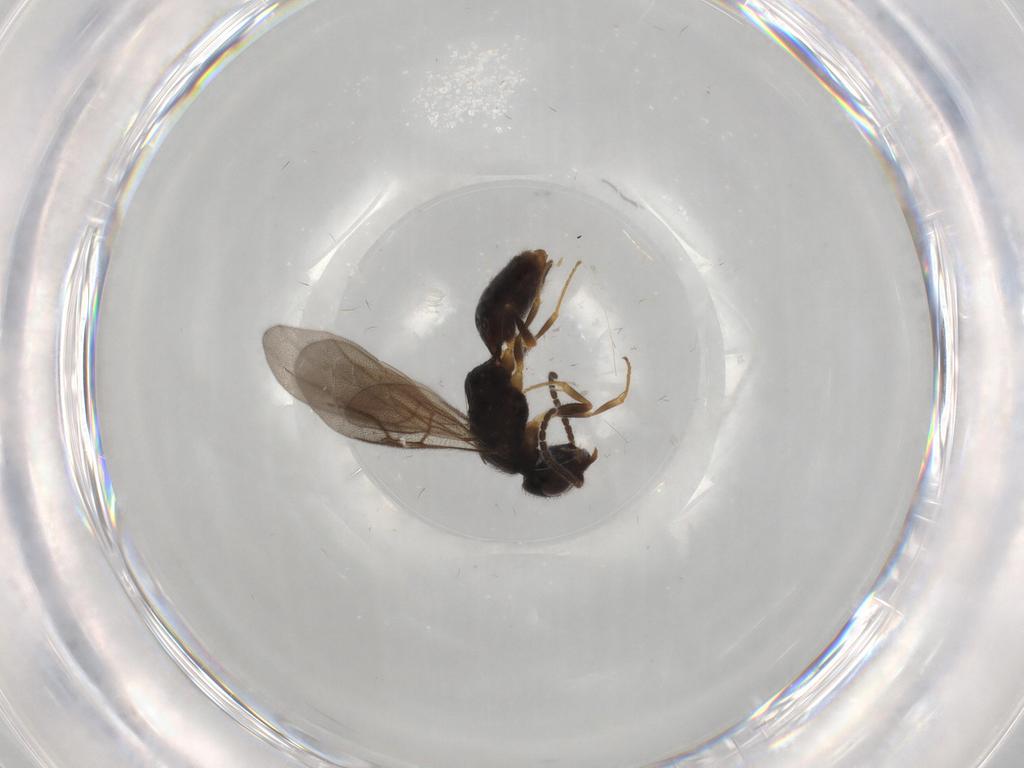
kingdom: Animalia
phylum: Arthropoda
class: Insecta
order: Hymenoptera
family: Bethylidae
